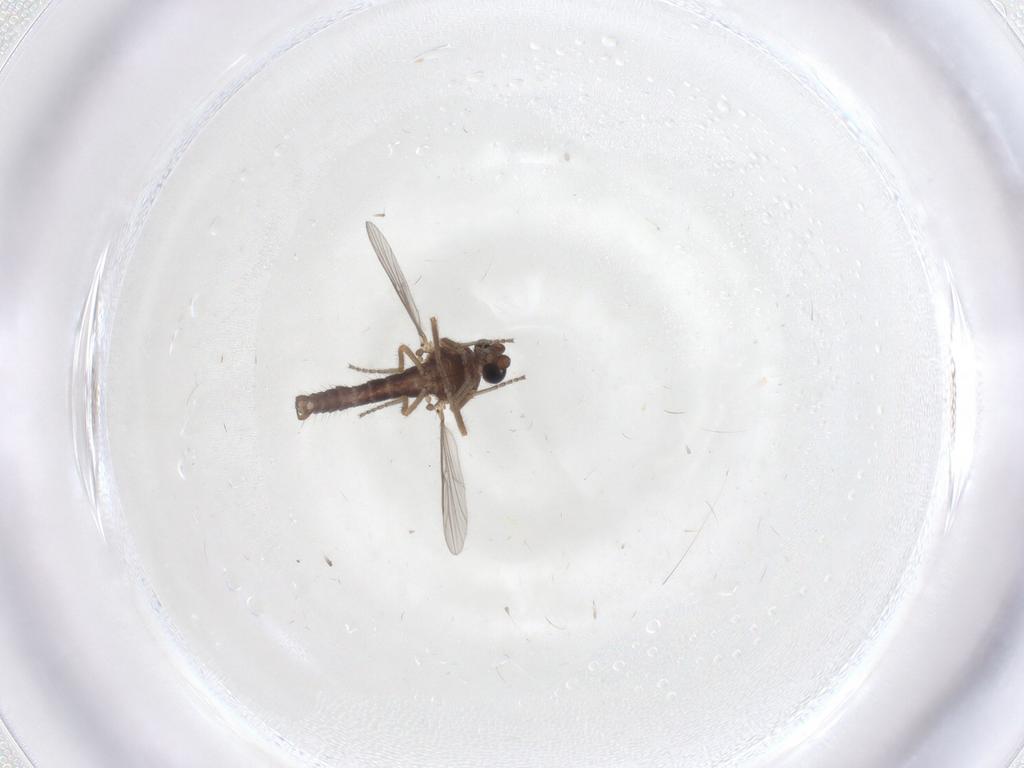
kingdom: Animalia
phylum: Arthropoda
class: Insecta
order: Diptera
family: Ceratopogonidae
